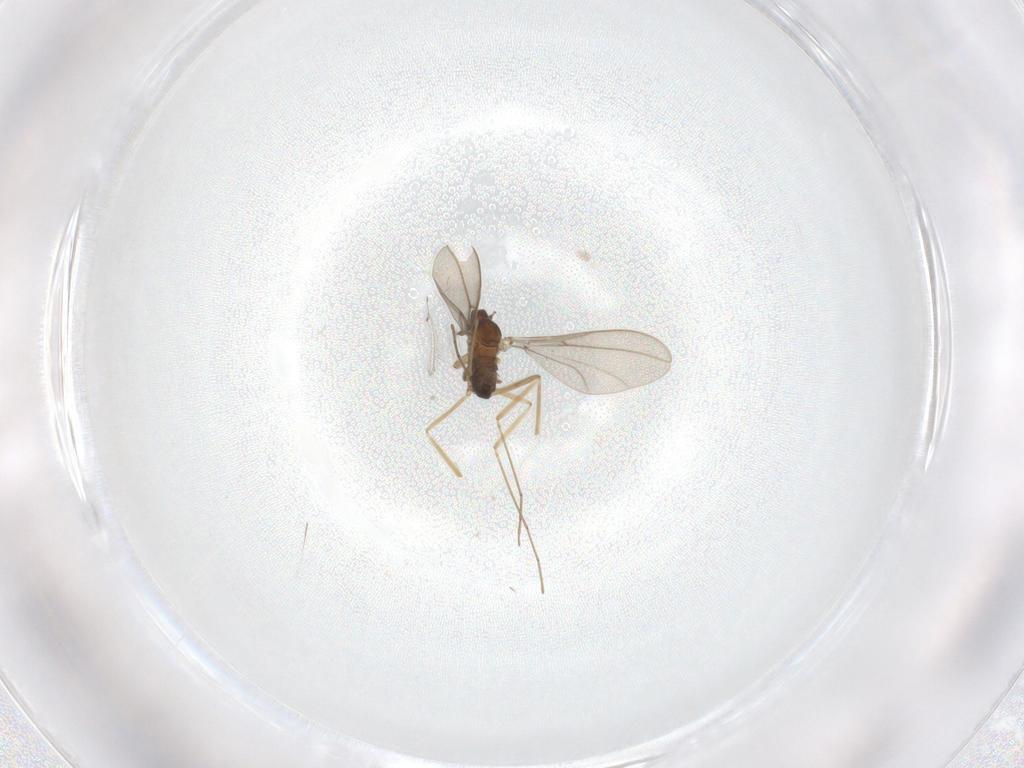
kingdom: Animalia
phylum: Arthropoda
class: Insecta
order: Diptera
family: Cecidomyiidae
